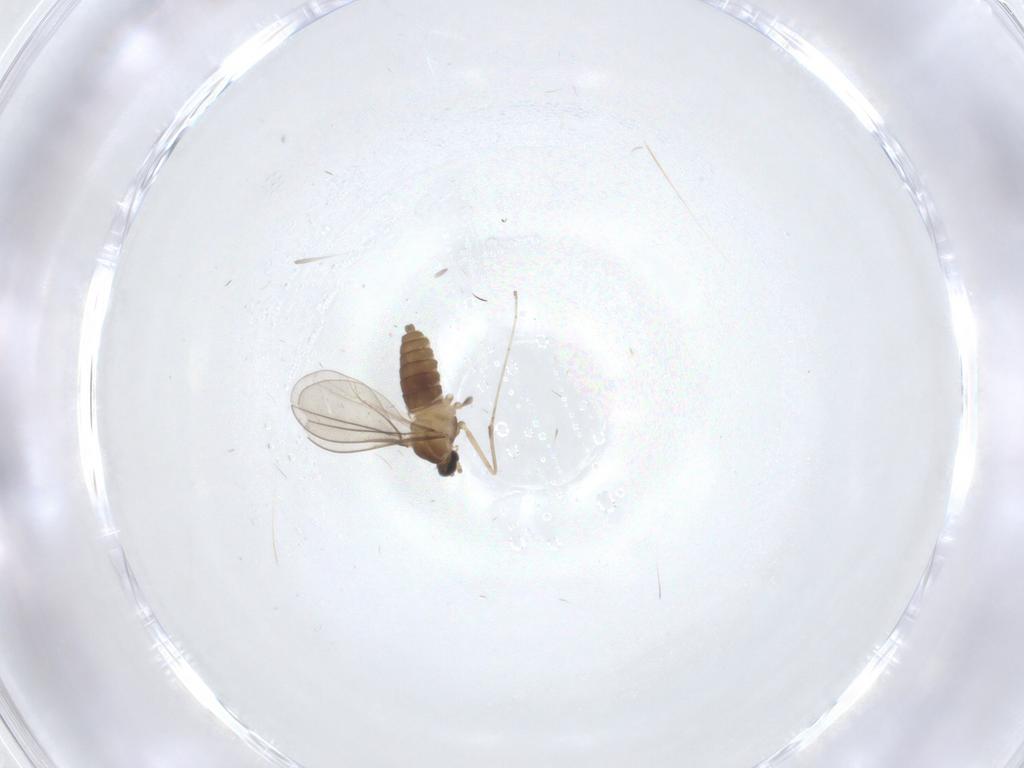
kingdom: Animalia
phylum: Arthropoda
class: Insecta
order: Diptera
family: Sciaridae
